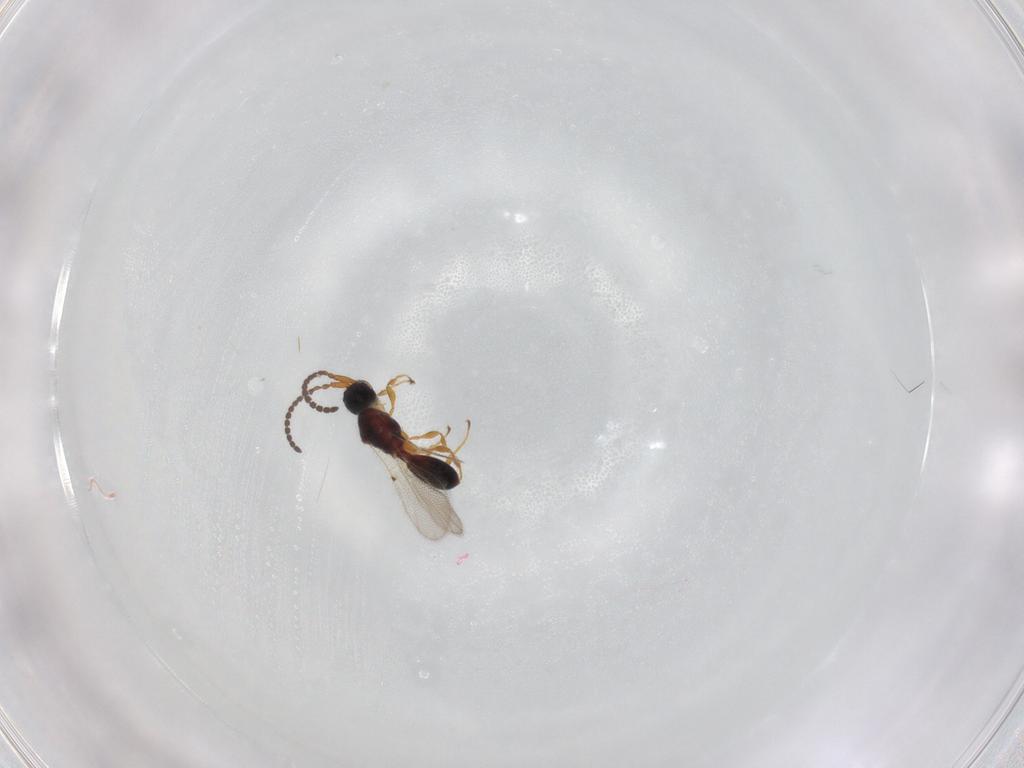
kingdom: Animalia
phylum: Arthropoda
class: Insecta
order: Hymenoptera
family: Diapriidae
